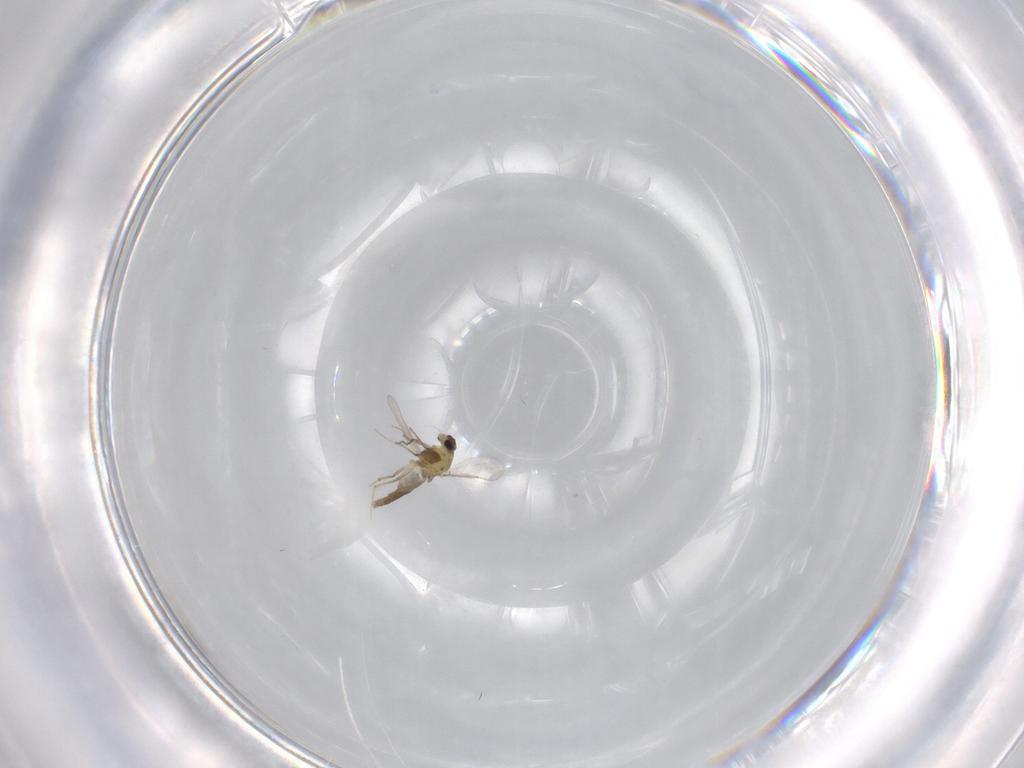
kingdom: Animalia
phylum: Arthropoda
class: Insecta
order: Diptera
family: Chironomidae
